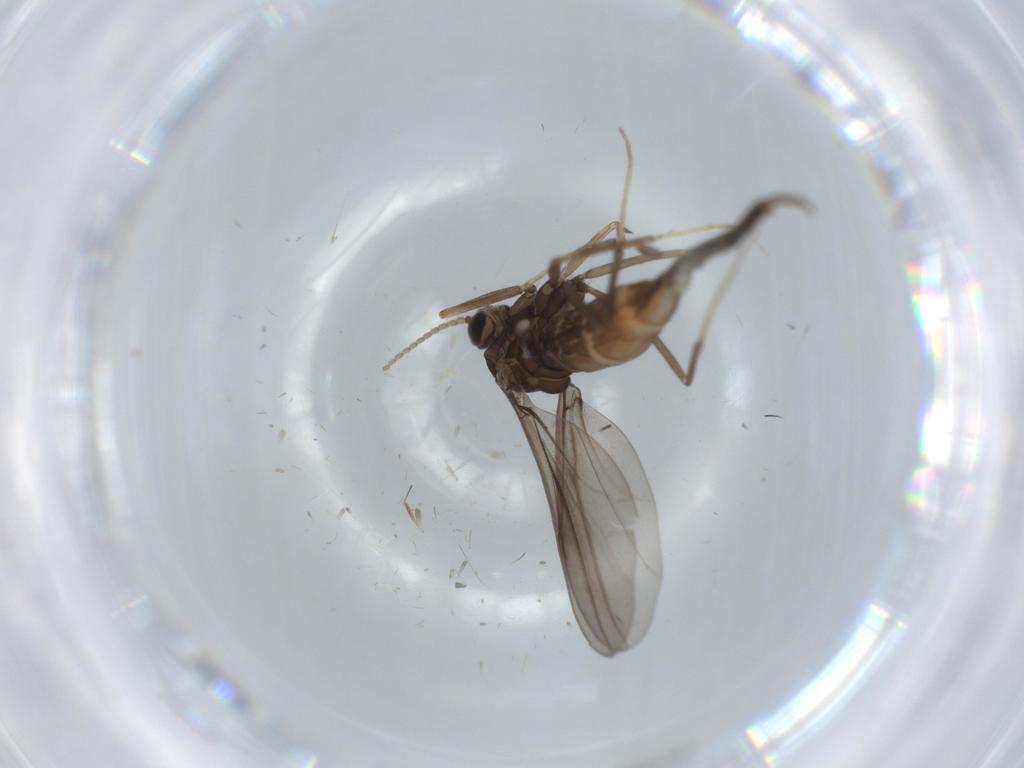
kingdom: Animalia
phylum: Arthropoda
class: Insecta
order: Diptera
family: Cecidomyiidae
